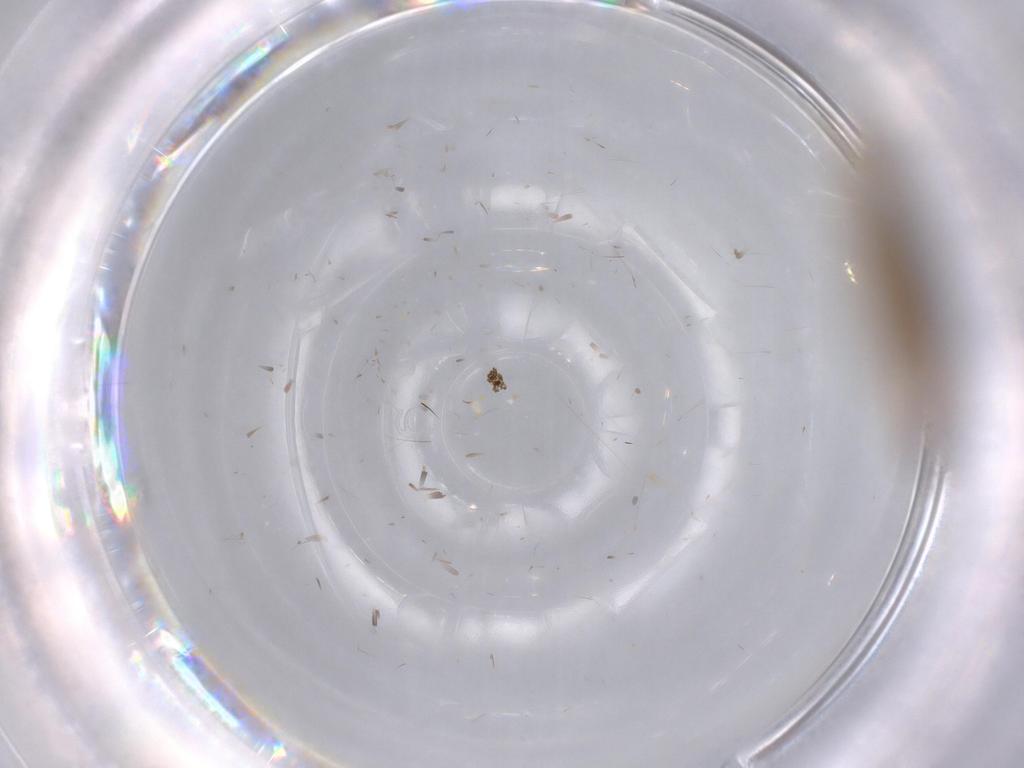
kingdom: Animalia
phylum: Arthropoda
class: Insecta
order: Lepidoptera
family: Tineidae
